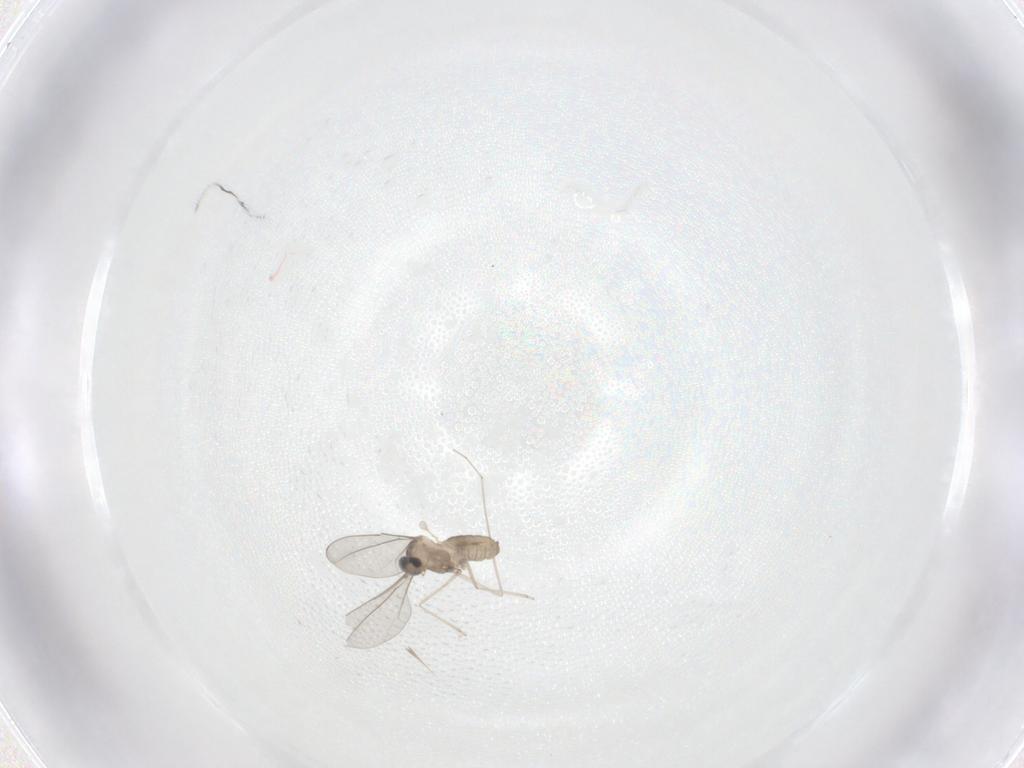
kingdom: Animalia
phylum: Arthropoda
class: Insecta
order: Diptera
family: Cecidomyiidae
